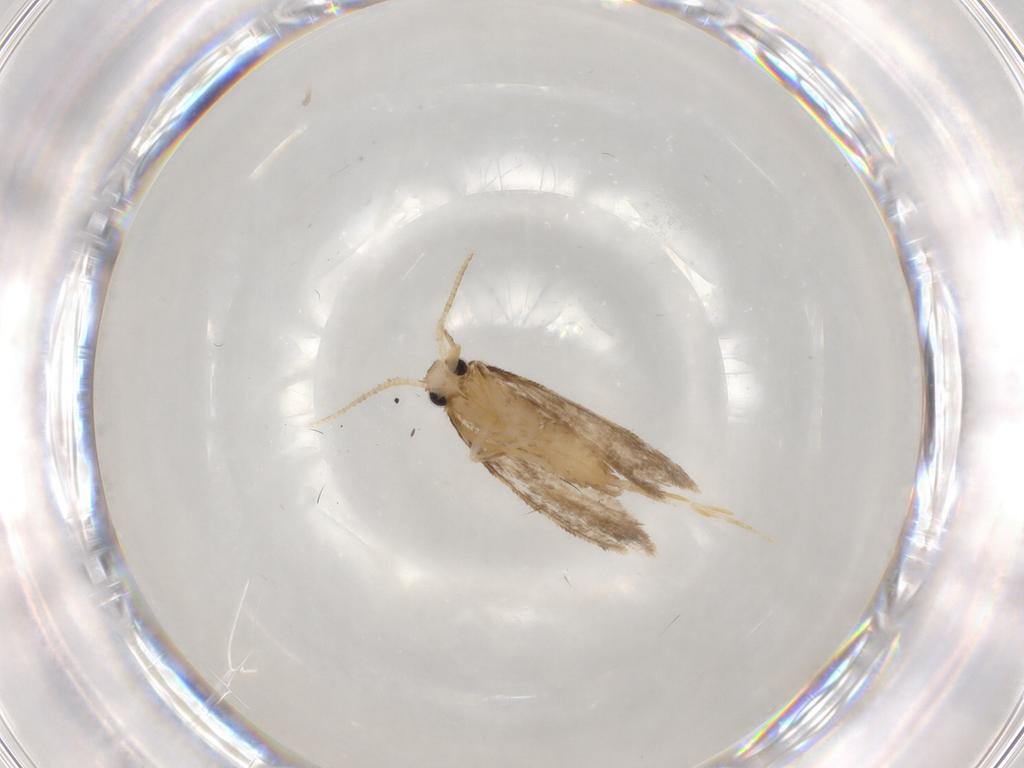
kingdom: Animalia
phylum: Arthropoda
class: Insecta
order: Lepidoptera
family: Psychidae
